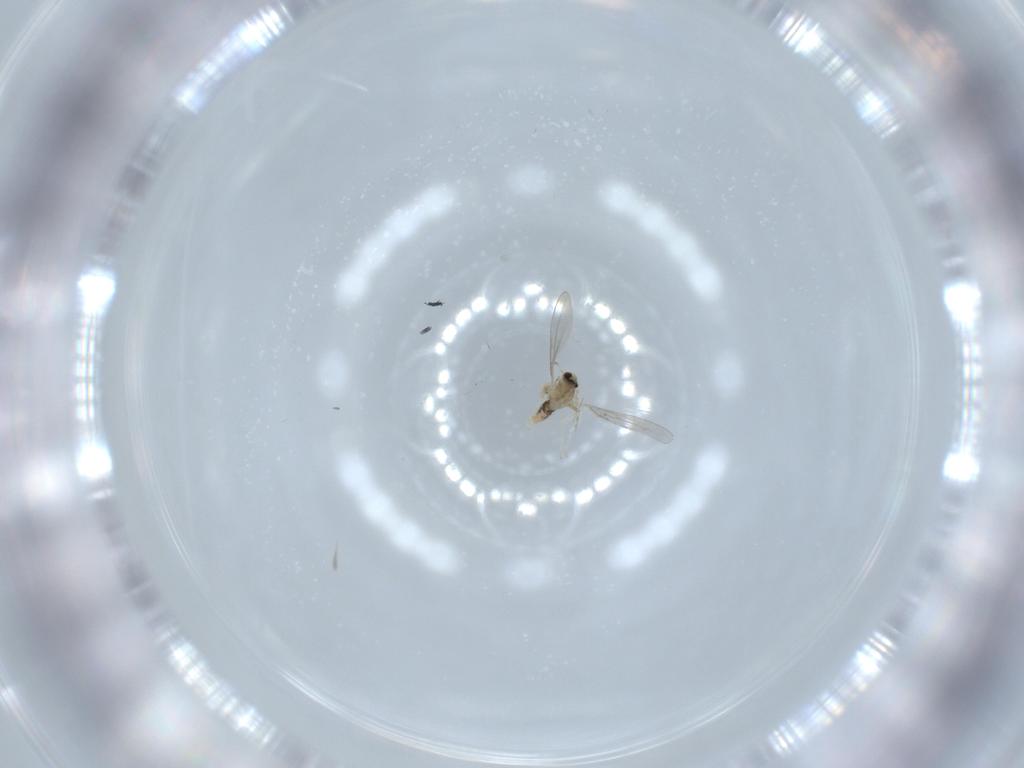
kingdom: Animalia
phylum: Arthropoda
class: Insecta
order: Diptera
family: Cecidomyiidae
